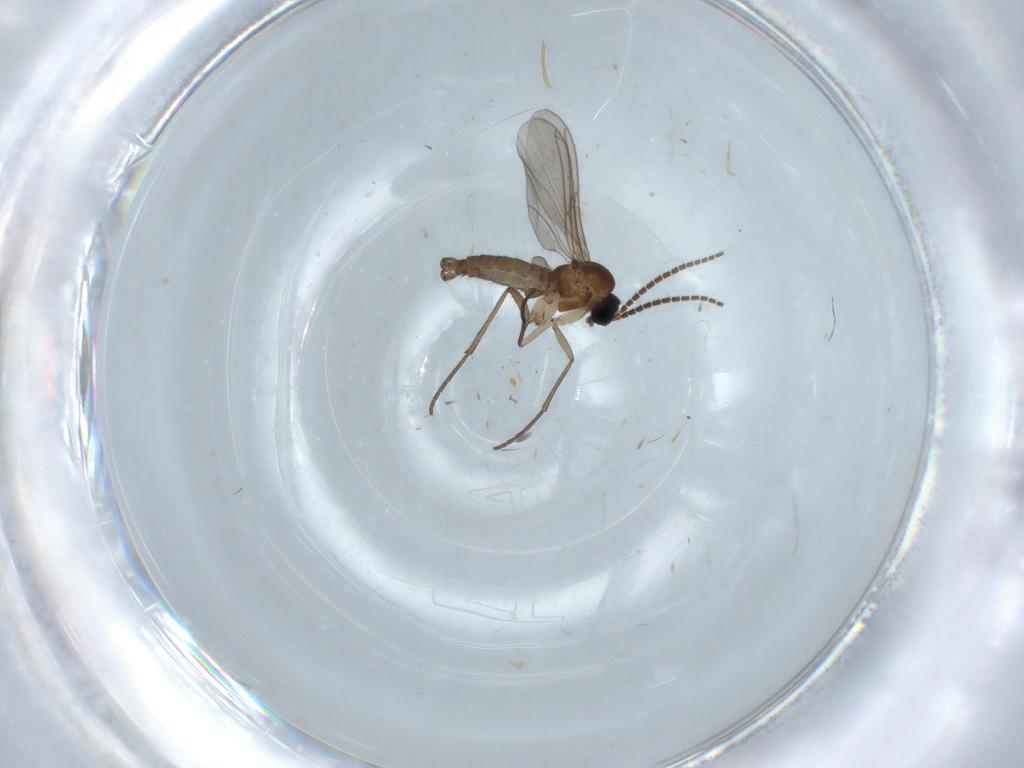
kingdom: Animalia
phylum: Arthropoda
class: Insecta
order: Diptera
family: Sciaridae
